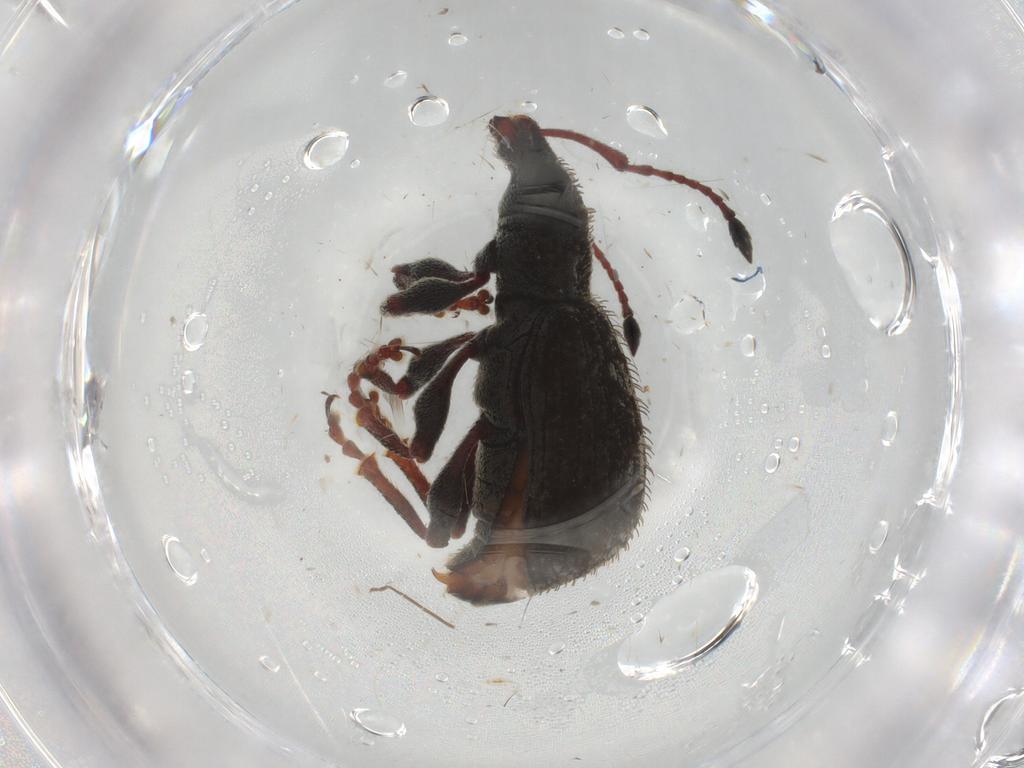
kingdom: Animalia
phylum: Arthropoda
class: Insecta
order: Coleoptera
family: Curculionidae
